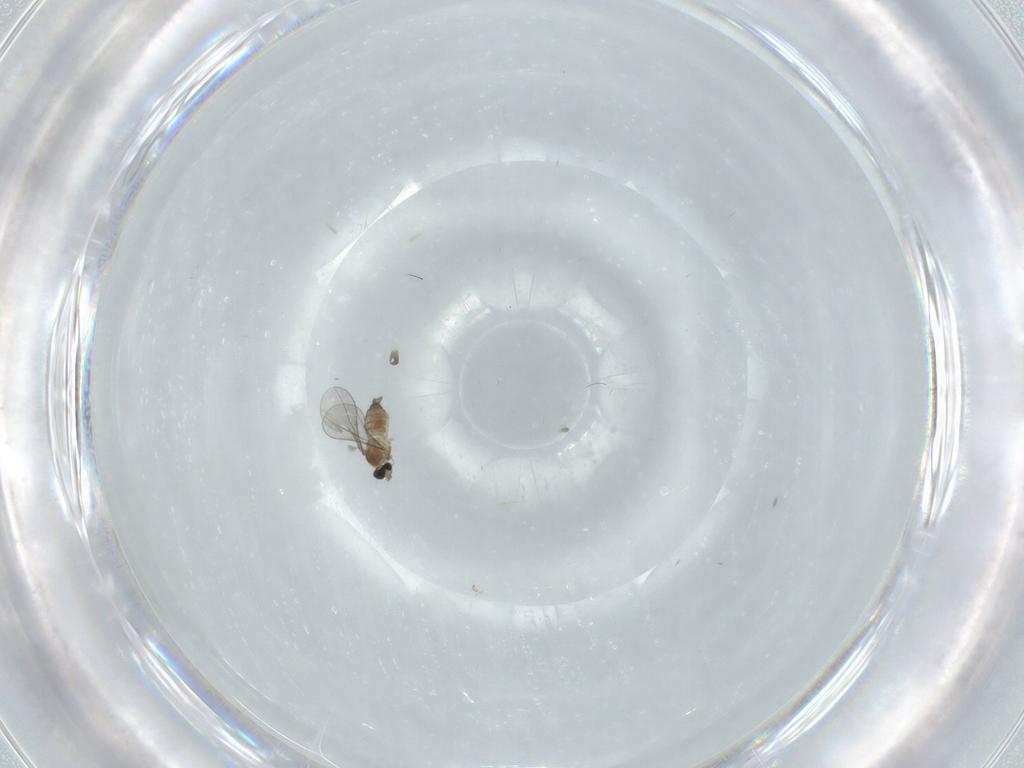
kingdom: Animalia
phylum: Arthropoda
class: Insecta
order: Diptera
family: Cecidomyiidae
